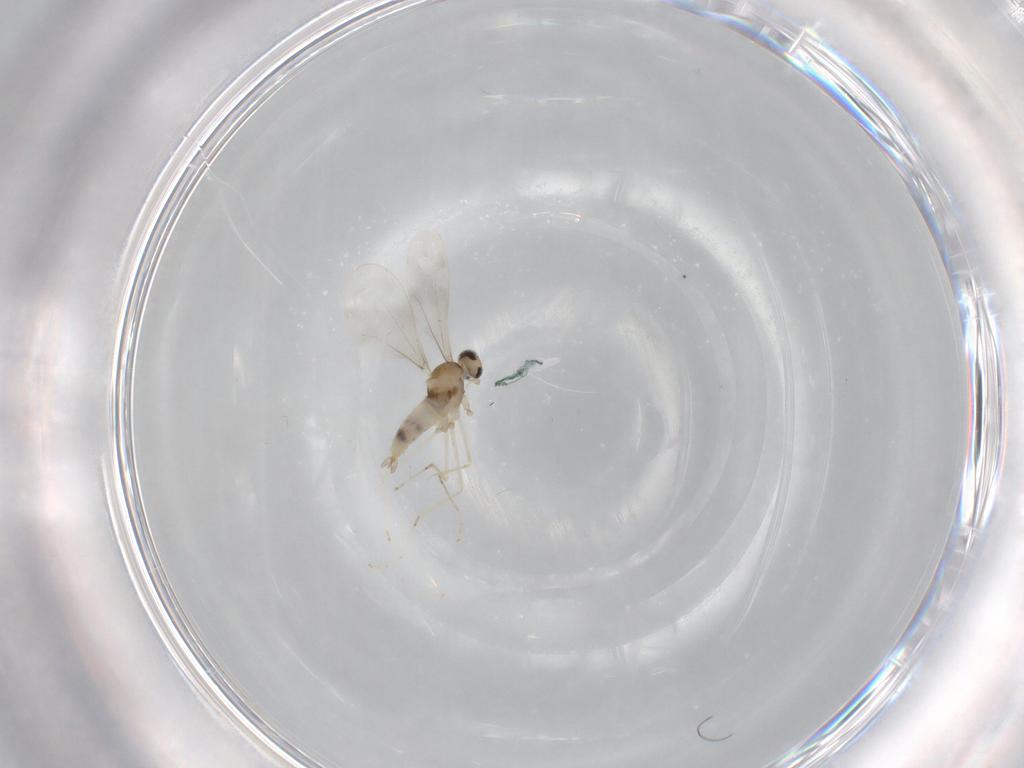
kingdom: Animalia
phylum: Arthropoda
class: Insecta
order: Diptera
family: Cecidomyiidae
